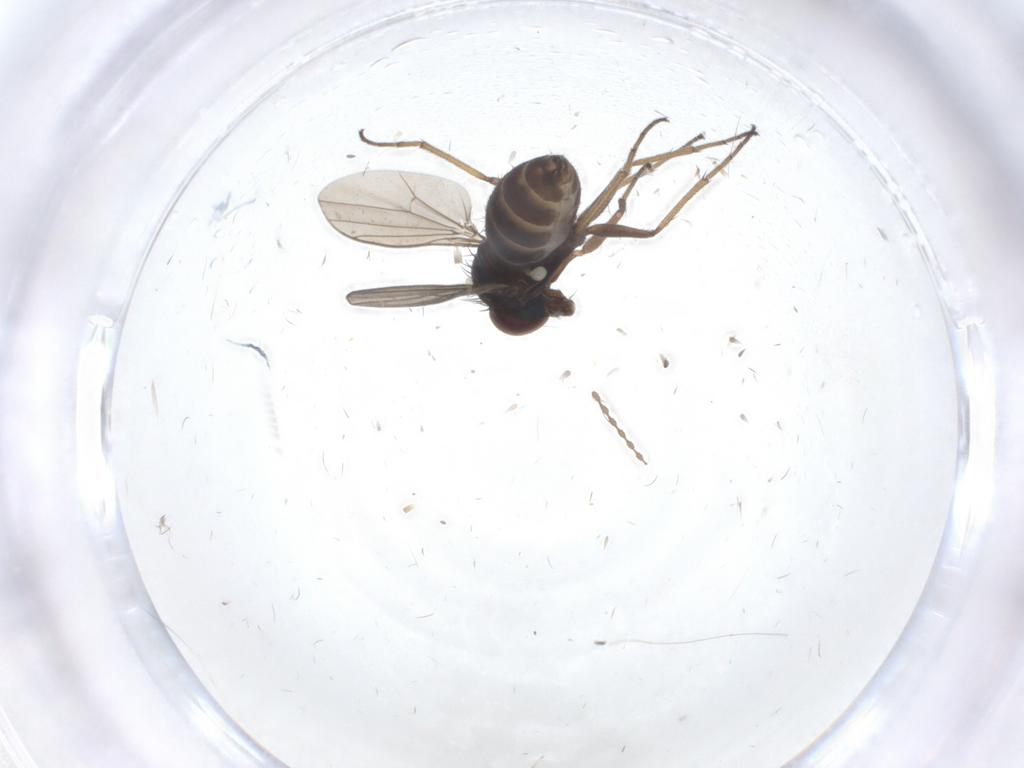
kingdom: Animalia
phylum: Arthropoda
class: Insecta
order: Diptera
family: Dolichopodidae
